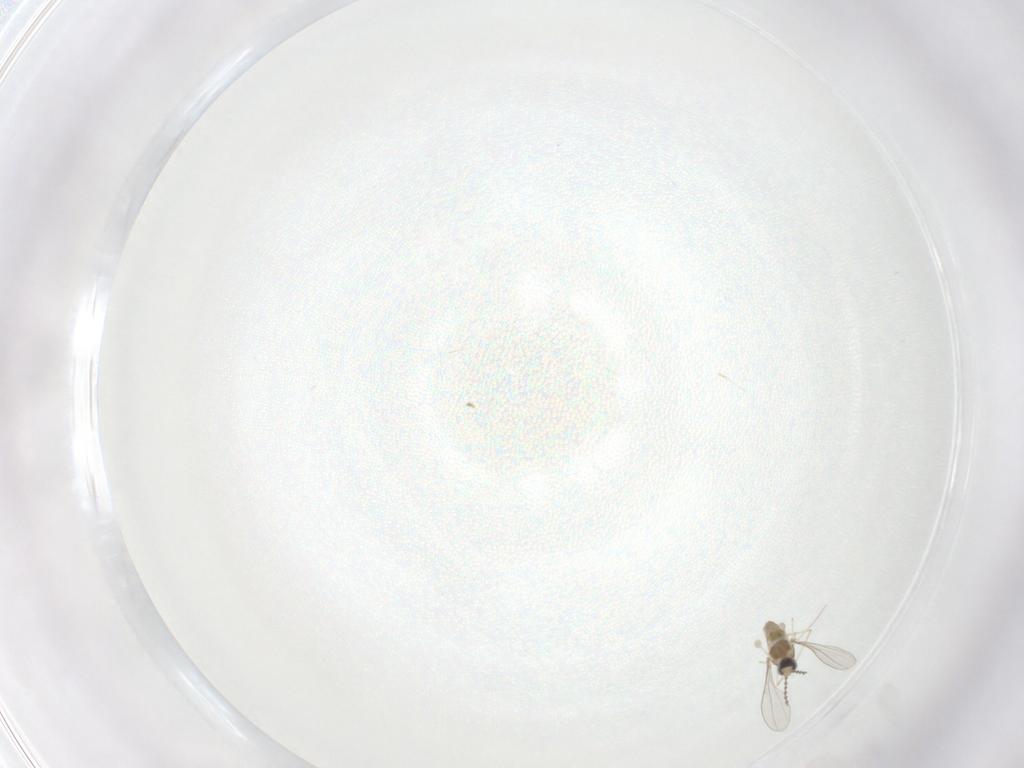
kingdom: Animalia
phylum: Arthropoda
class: Insecta
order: Diptera
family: Cecidomyiidae
